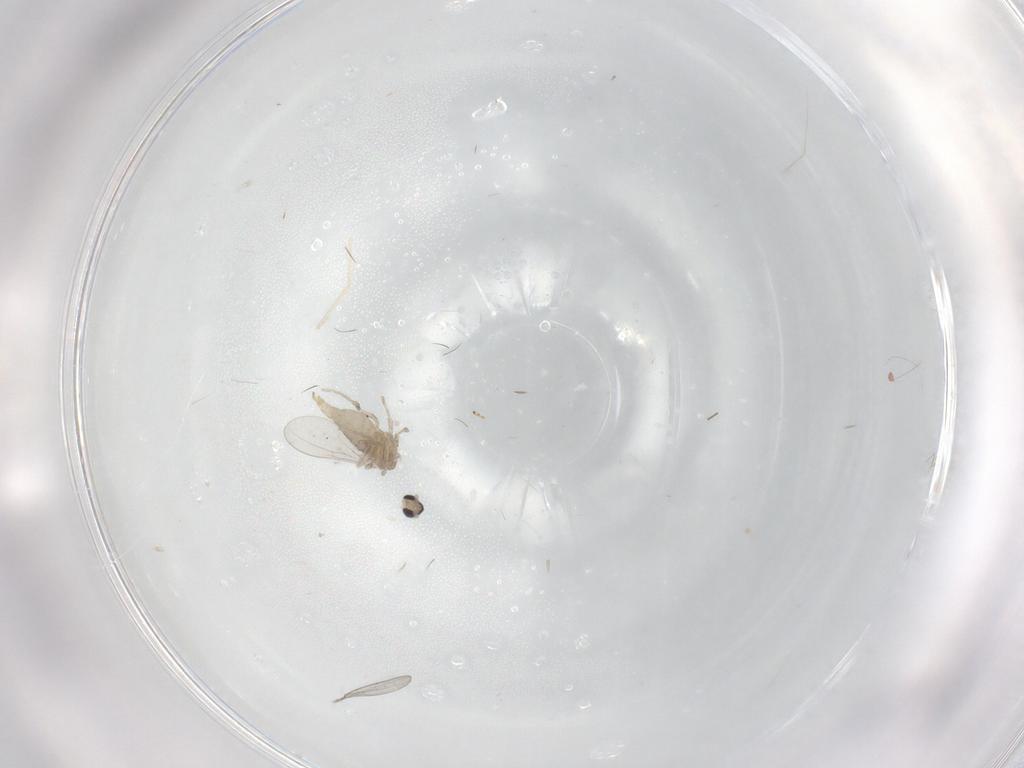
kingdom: Animalia
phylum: Arthropoda
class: Insecta
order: Diptera
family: Cecidomyiidae
